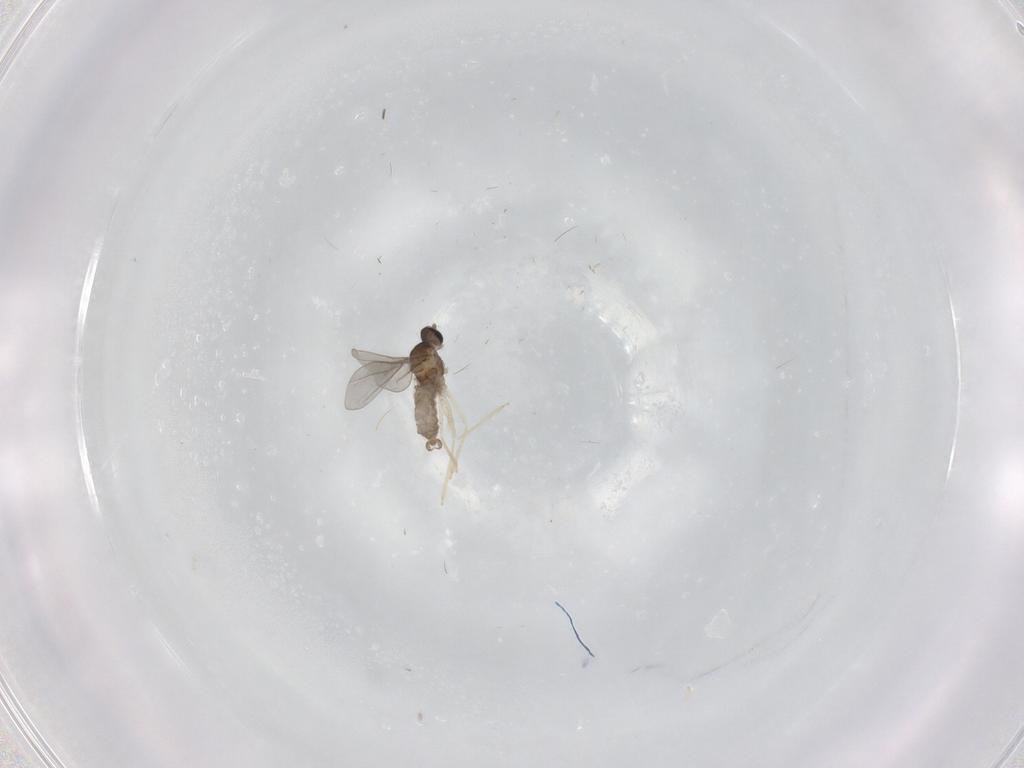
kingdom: Animalia
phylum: Arthropoda
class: Insecta
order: Diptera
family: Cecidomyiidae
